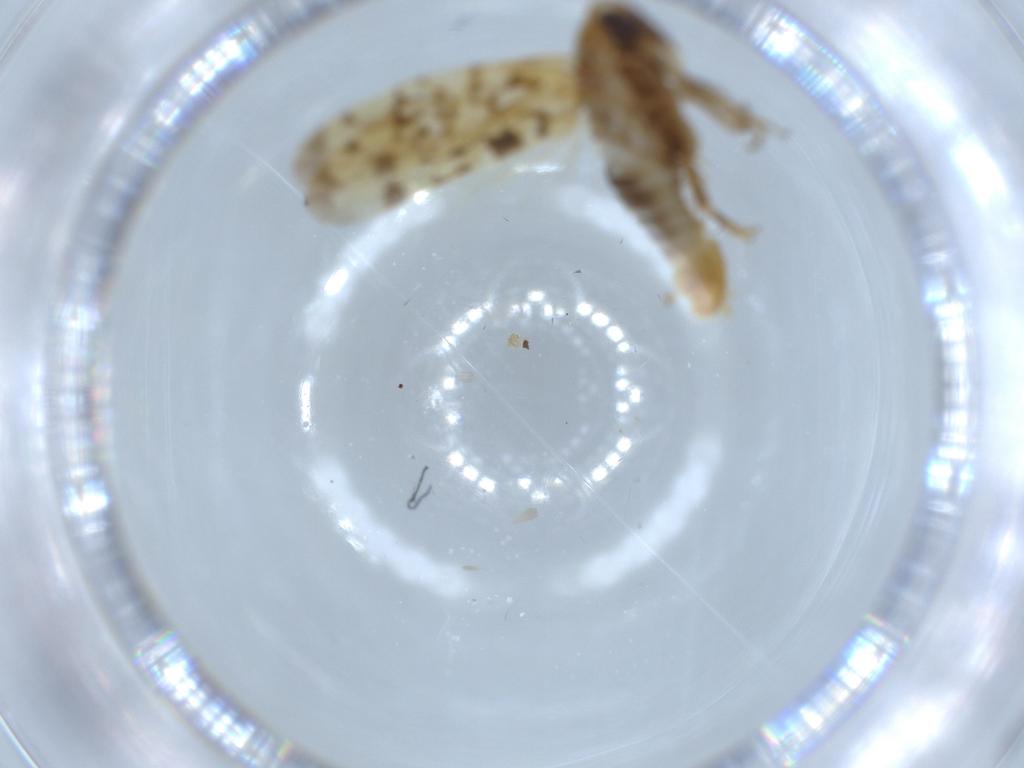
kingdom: Animalia
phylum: Arthropoda
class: Insecta
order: Hemiptera
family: Cicadellidae
